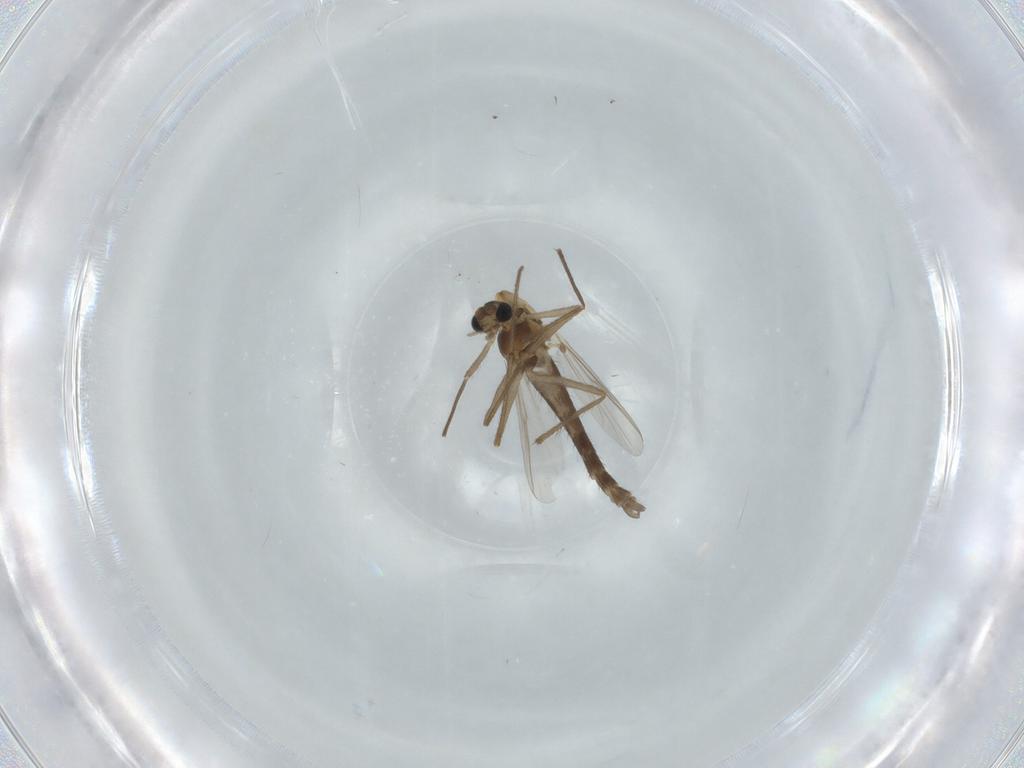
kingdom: Animalia
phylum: Arthropoda
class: Insecta
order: Diptera
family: Chironomidae
